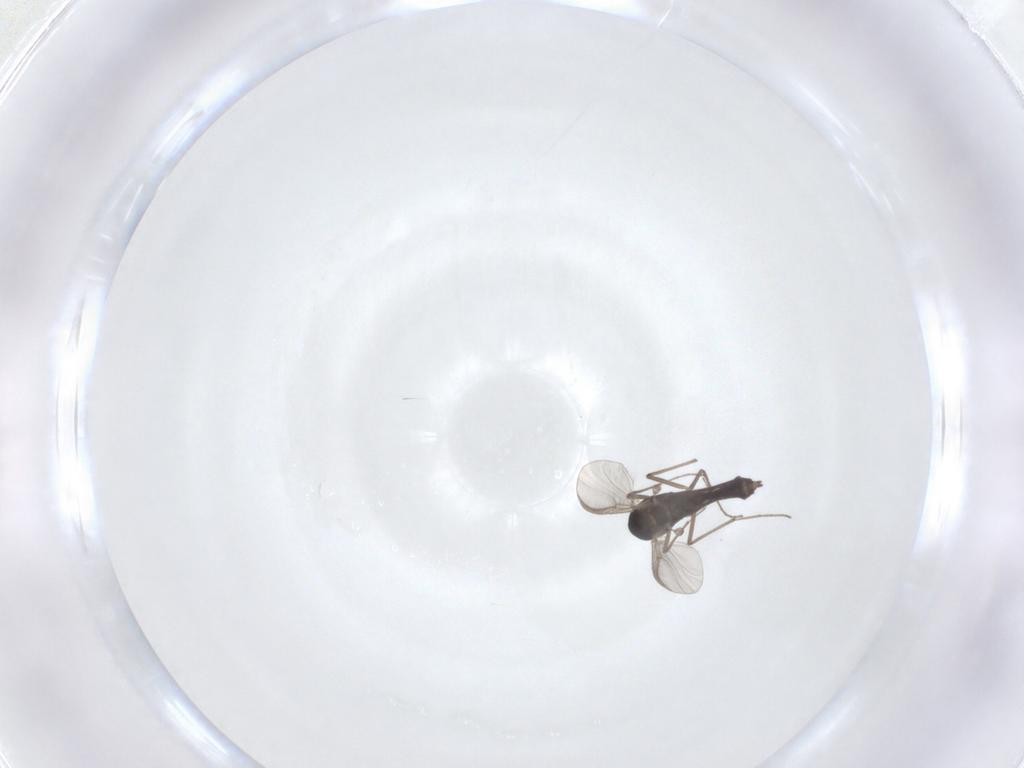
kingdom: Animalia
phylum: Arthropoda
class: Insecta
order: Diptera
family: Chironomidae
